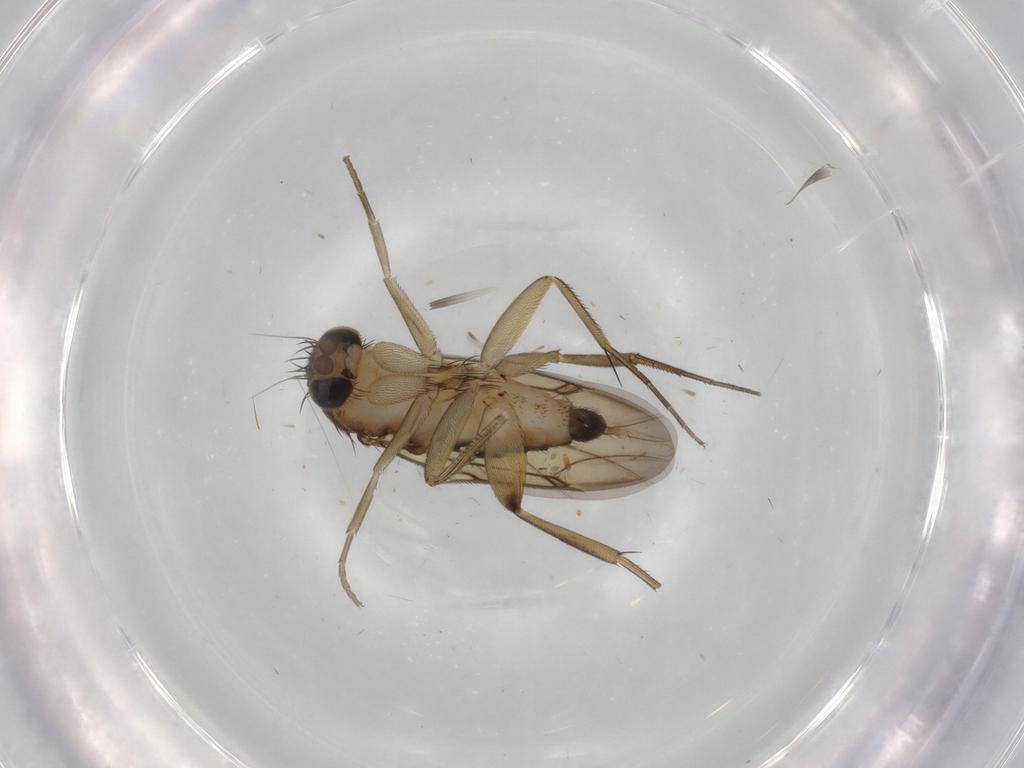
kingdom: Animalia
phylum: Arthropoda
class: Insecta
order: Diptera
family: Phoridae
